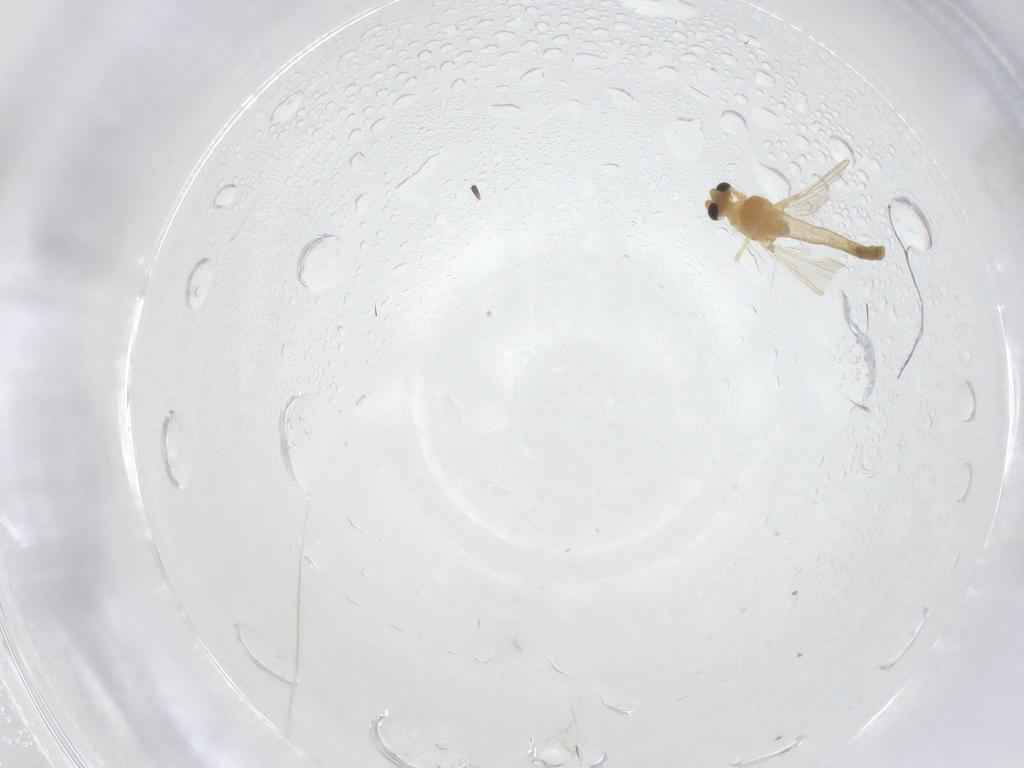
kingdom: Animalia
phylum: Arthropoda
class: Insecta
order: Diptera
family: Chironomidae
